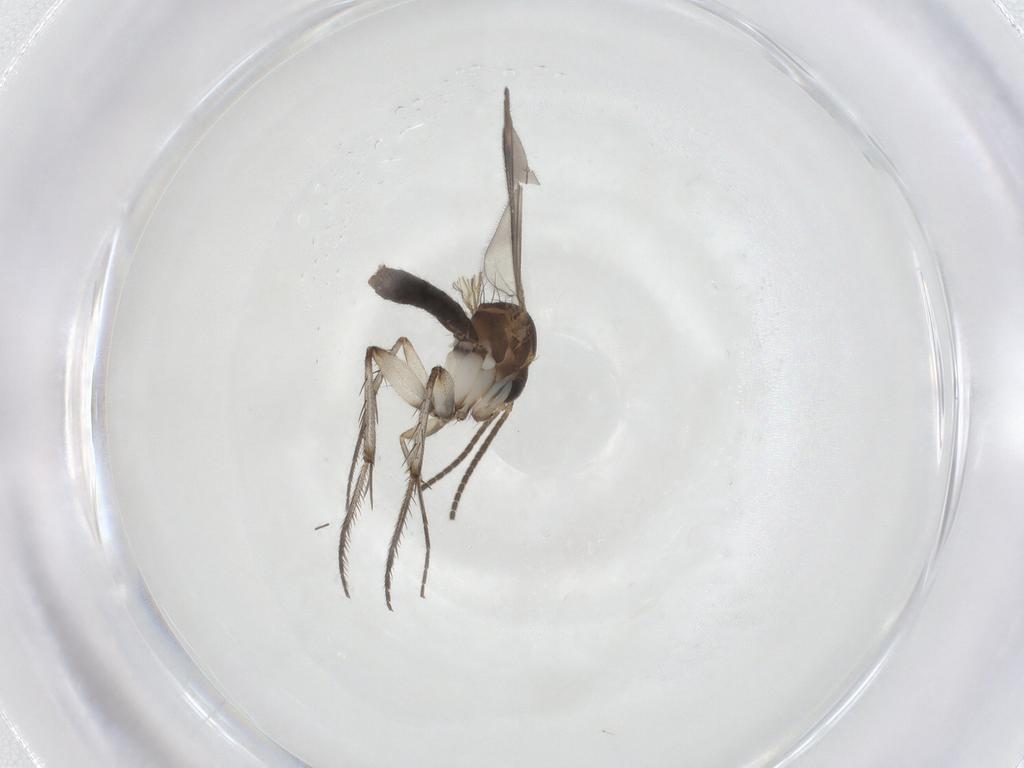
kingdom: Animalia
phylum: Arthropoda
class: Insecta
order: Diptera
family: Mycetophilidae
